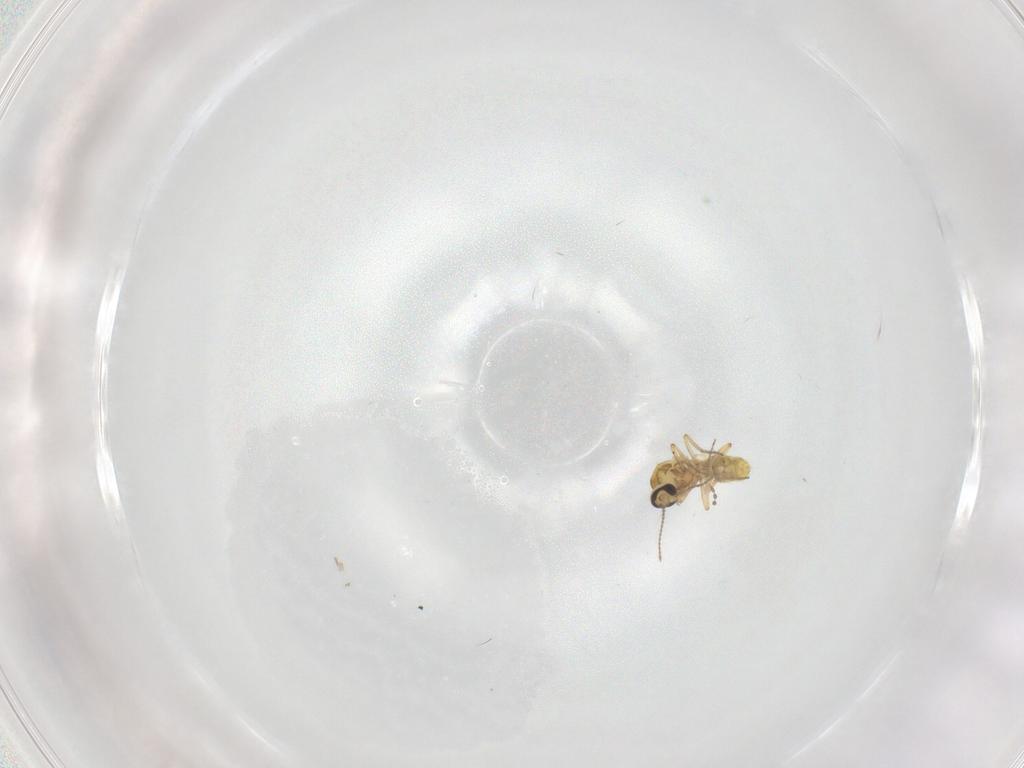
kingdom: Animalia
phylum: Arthropoda
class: Insecta
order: Diptera
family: Ceratopogonidae
